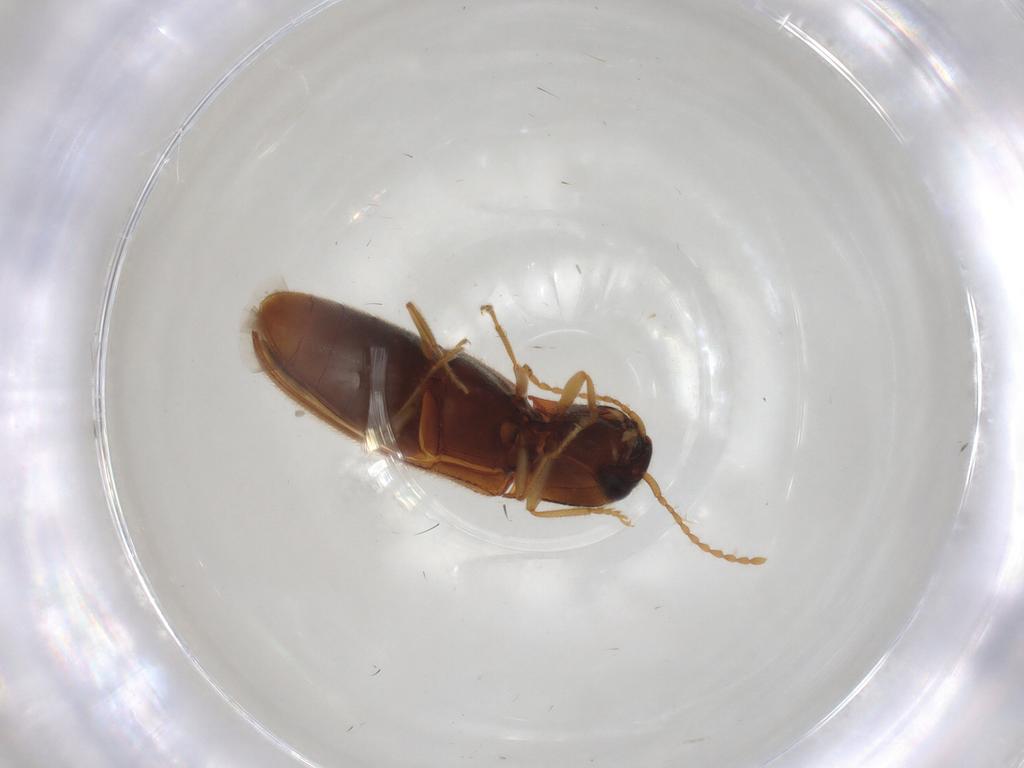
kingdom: Animalia
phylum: Arthropoda
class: Insecta
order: Coleoptera
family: Elateridae
